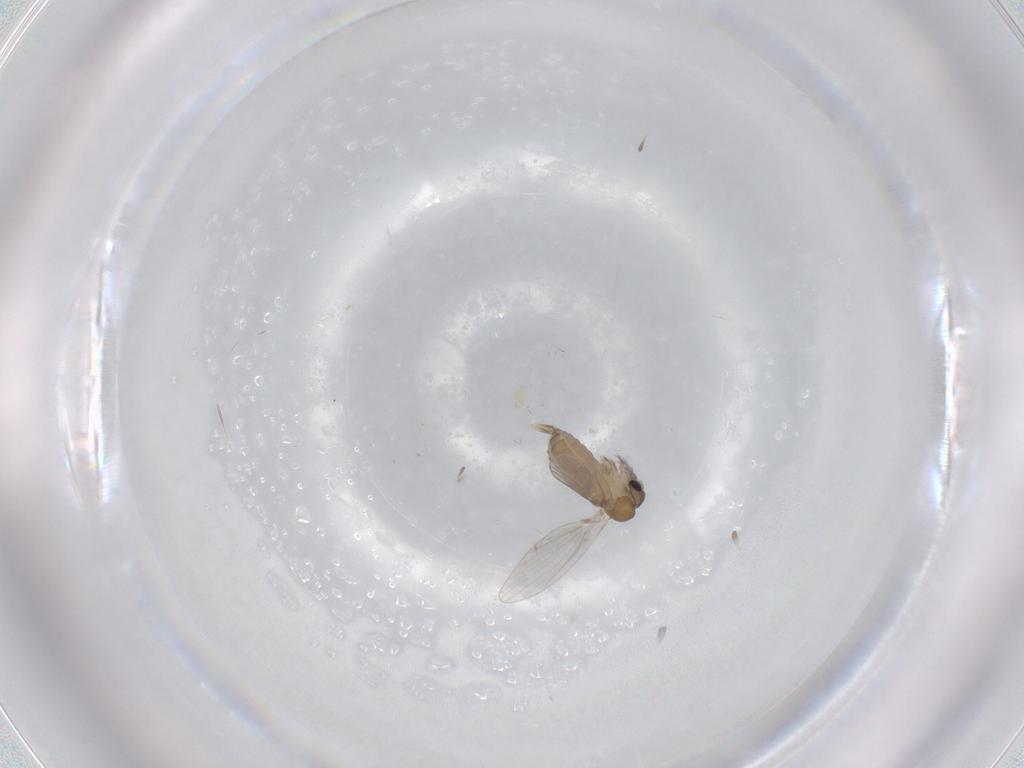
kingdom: Animalia
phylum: Arthropoda
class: Insecta
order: Diptera
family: Psychodidae
